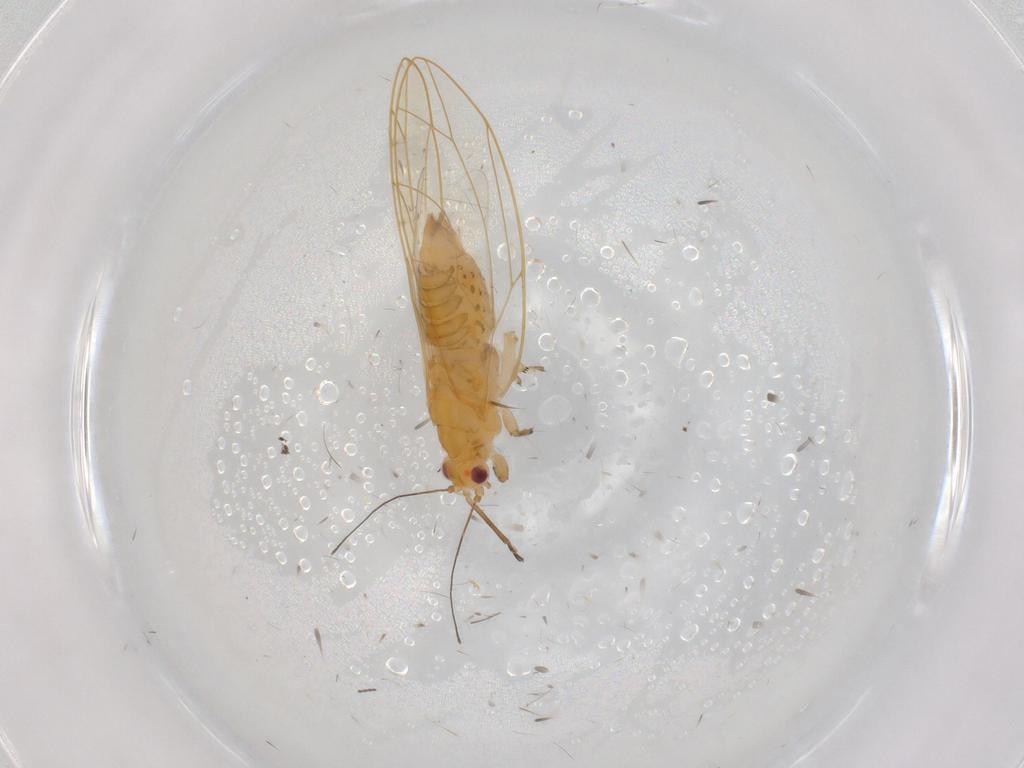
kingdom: Animalia
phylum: Arthropoda
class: Insecta
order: Hemiptera
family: Triozidae
